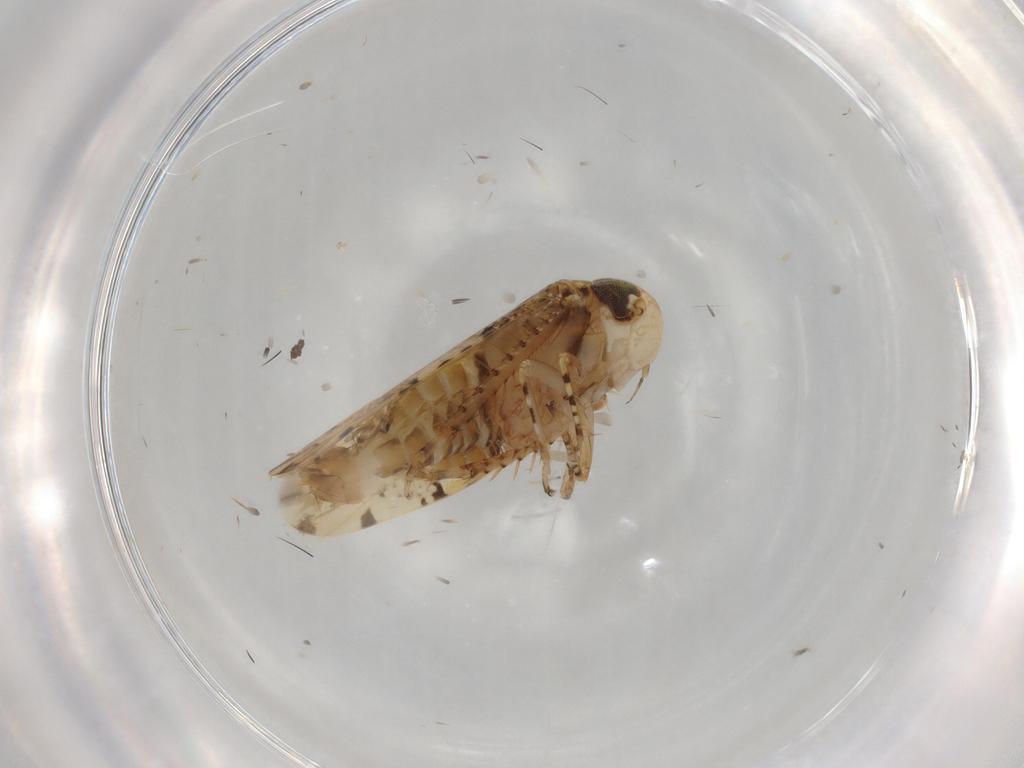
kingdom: Animalia
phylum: Arthropoda
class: Insecta
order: Hemiptera
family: Cicadellidae
